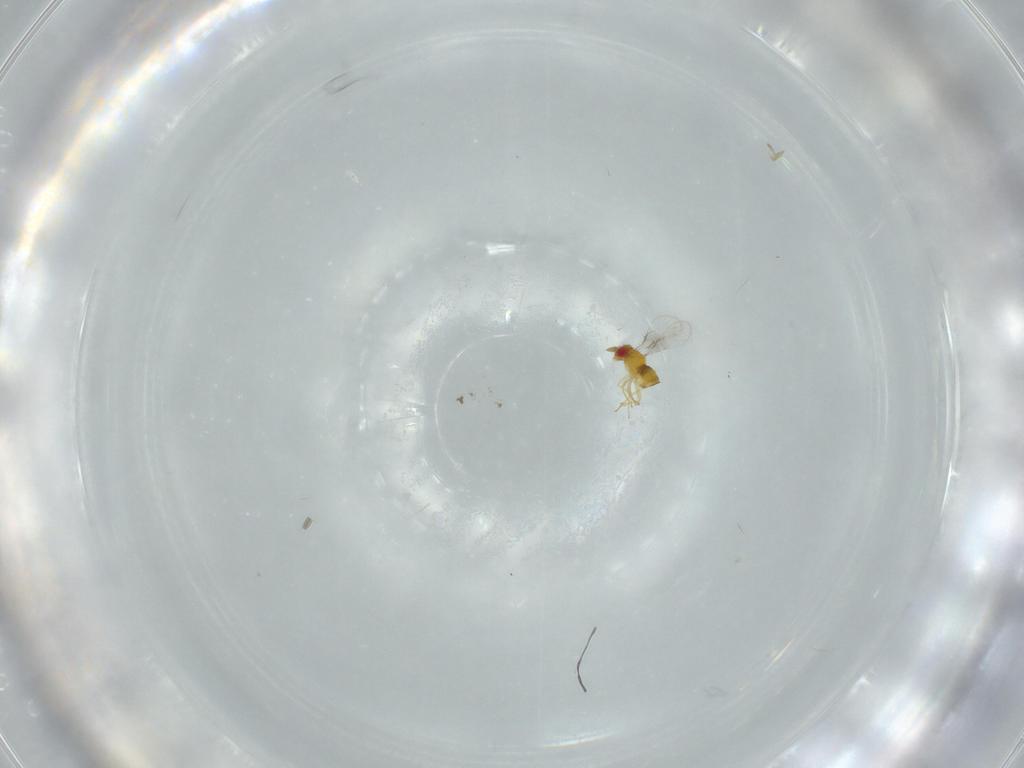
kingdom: Animalia
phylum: Arthropoda
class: Insecta
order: Hymenoptera
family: Trichogrammatidae
